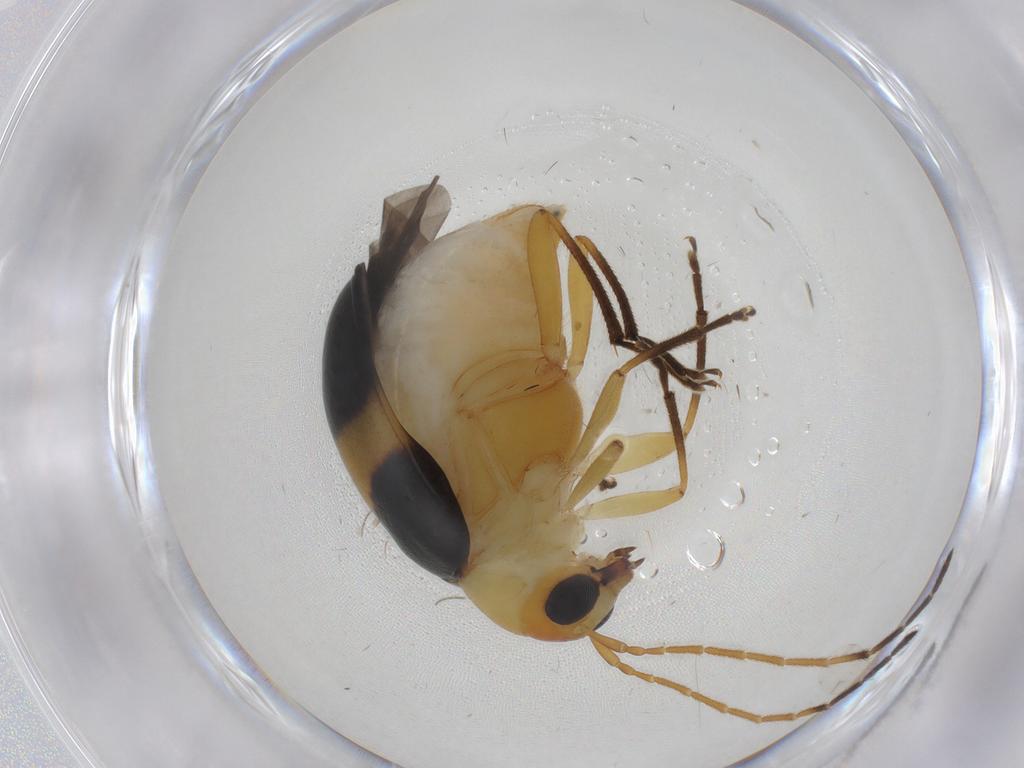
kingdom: Animalia
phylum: Arthropoda
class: Insecta
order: Coleoptera
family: Chrysomelidae
